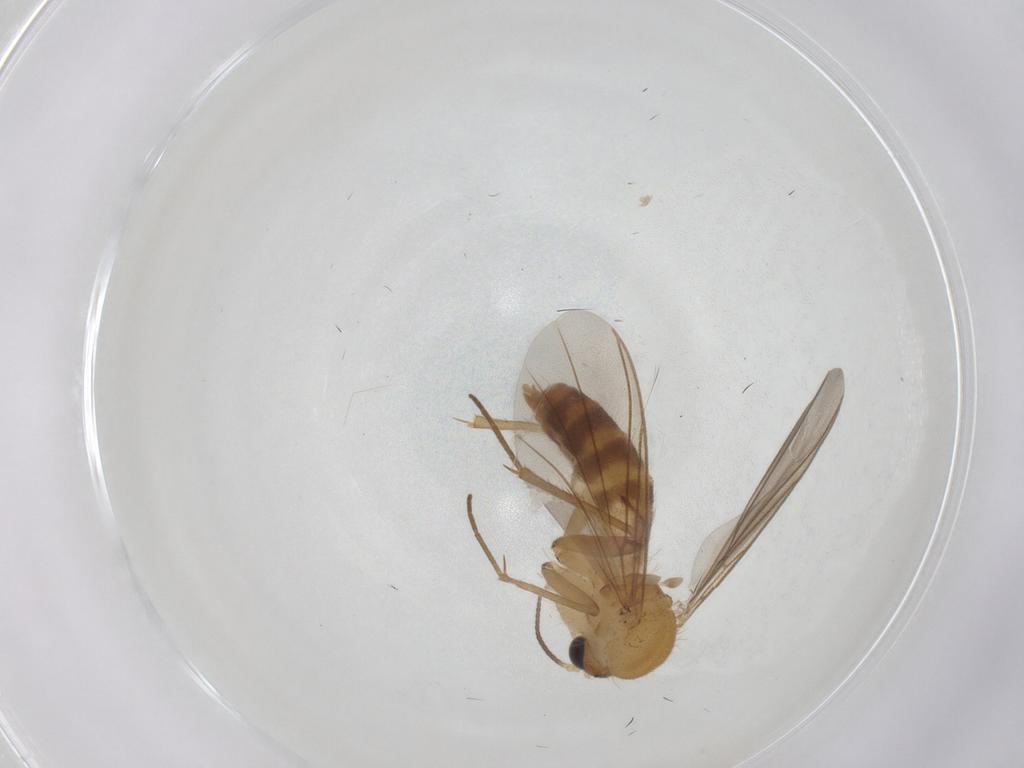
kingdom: Animalia
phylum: Arthropoda
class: Insecta
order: Diptera
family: Mycetophilidae
